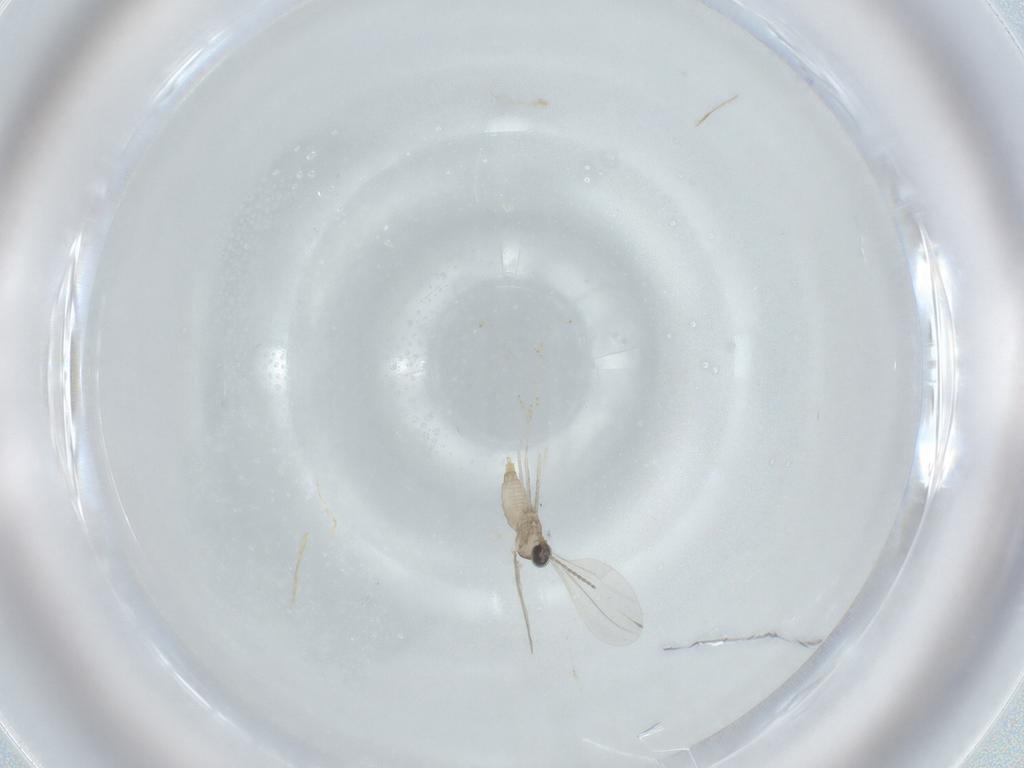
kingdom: Animalia
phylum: Arthropoda
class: Insecta
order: Diptera
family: Cecidomyiidae
